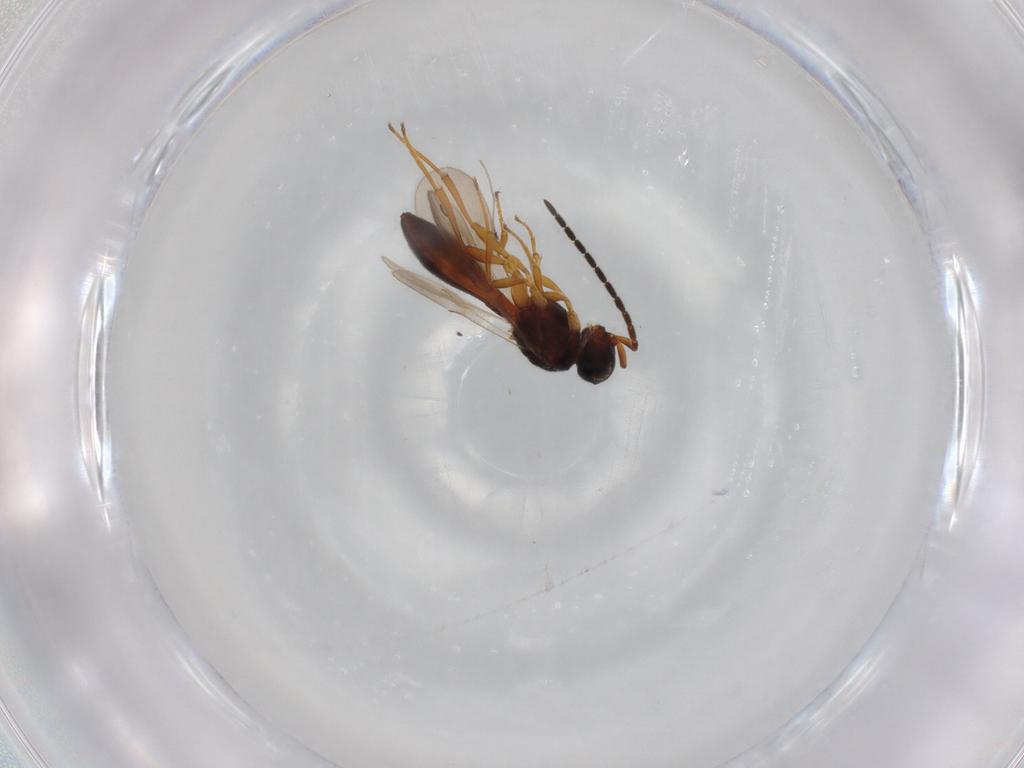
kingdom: Animalia
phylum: Arthropoda
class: Insecta
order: Hymenoptera
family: Scelionidae
